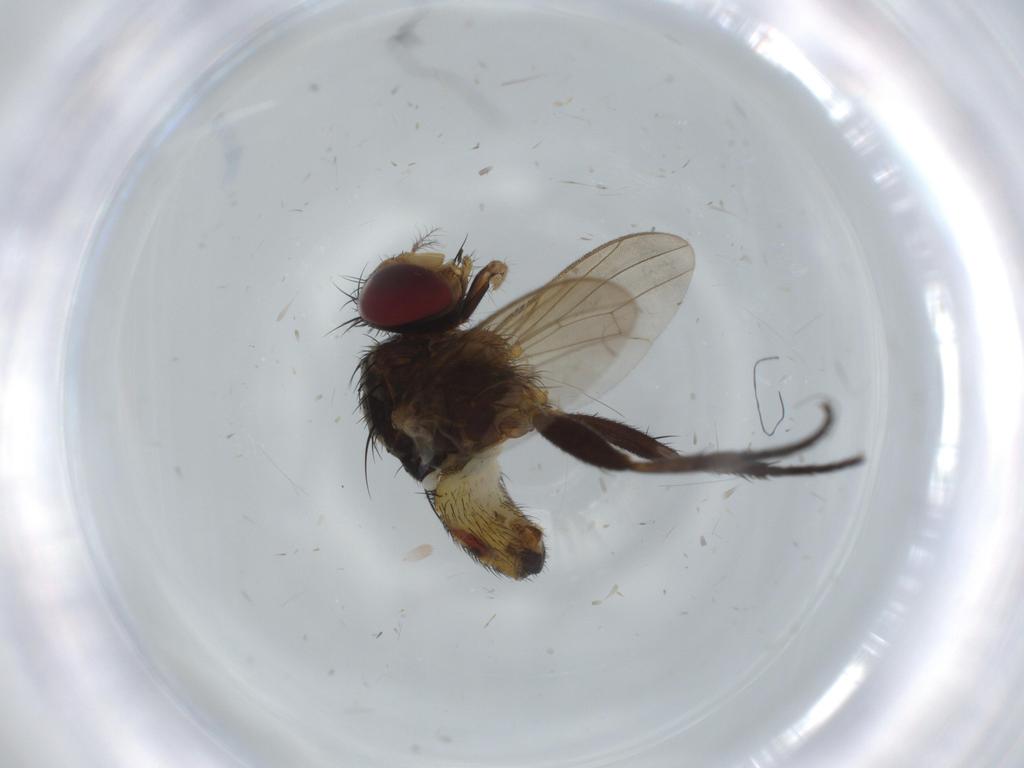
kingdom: Animalia
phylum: Arthropoda
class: Insecta
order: Diptera
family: Anthomyiidae
